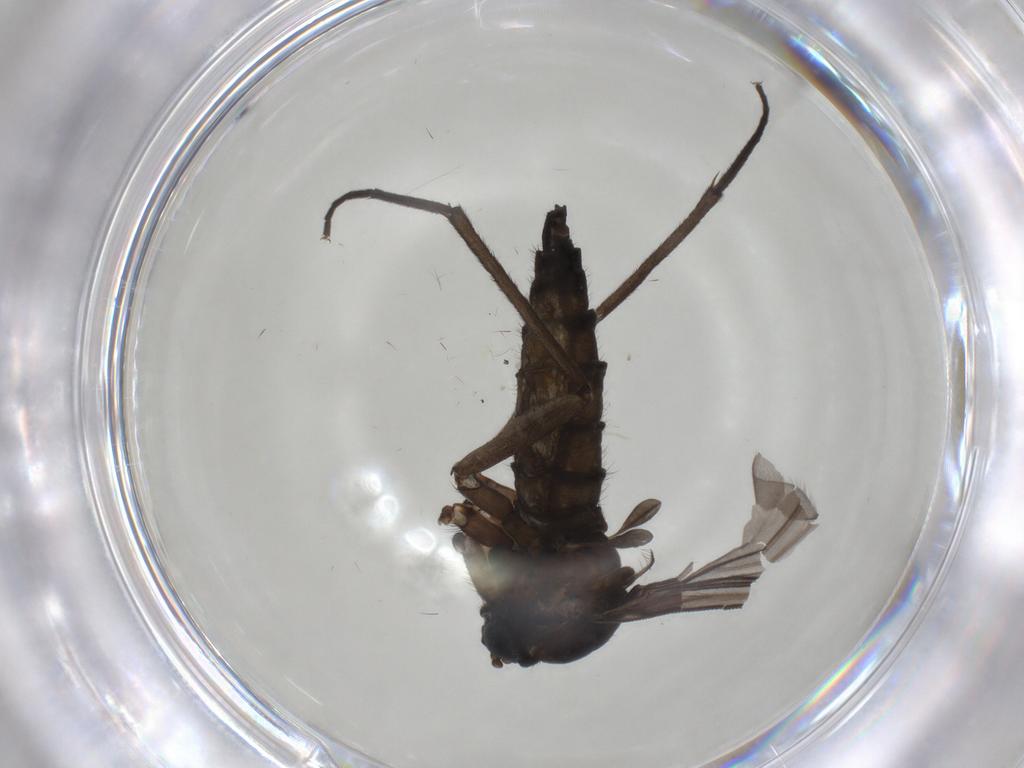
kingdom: Animalia
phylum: Arthropoda
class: Insecta
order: Diptera
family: Sciaridae
